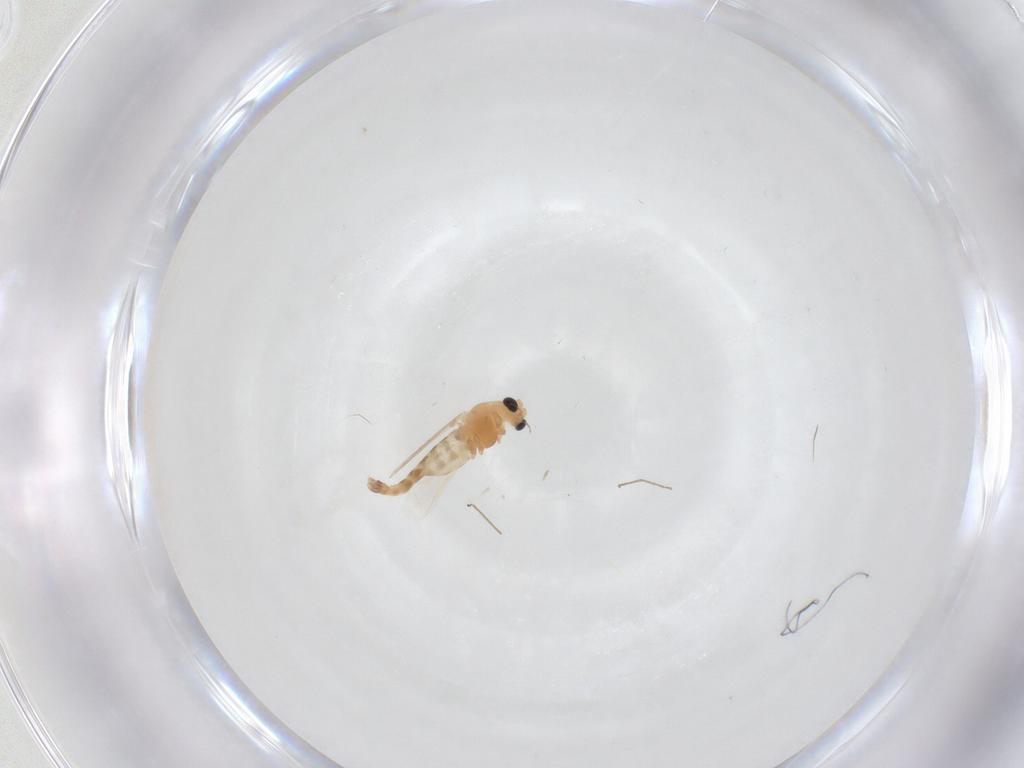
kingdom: Animalia
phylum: Arthropoda
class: Insecta
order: Diptera
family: Chironomidae
